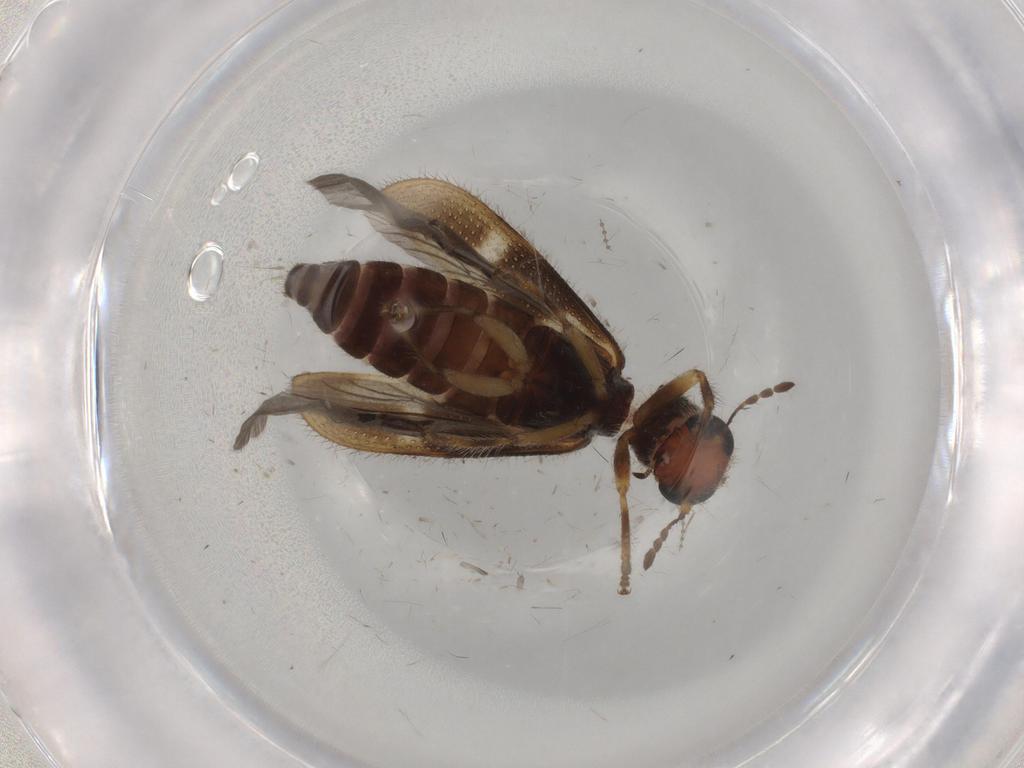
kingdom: Animalia
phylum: Arthropoda
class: Insecta
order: Coleoptera
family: Cleridae
